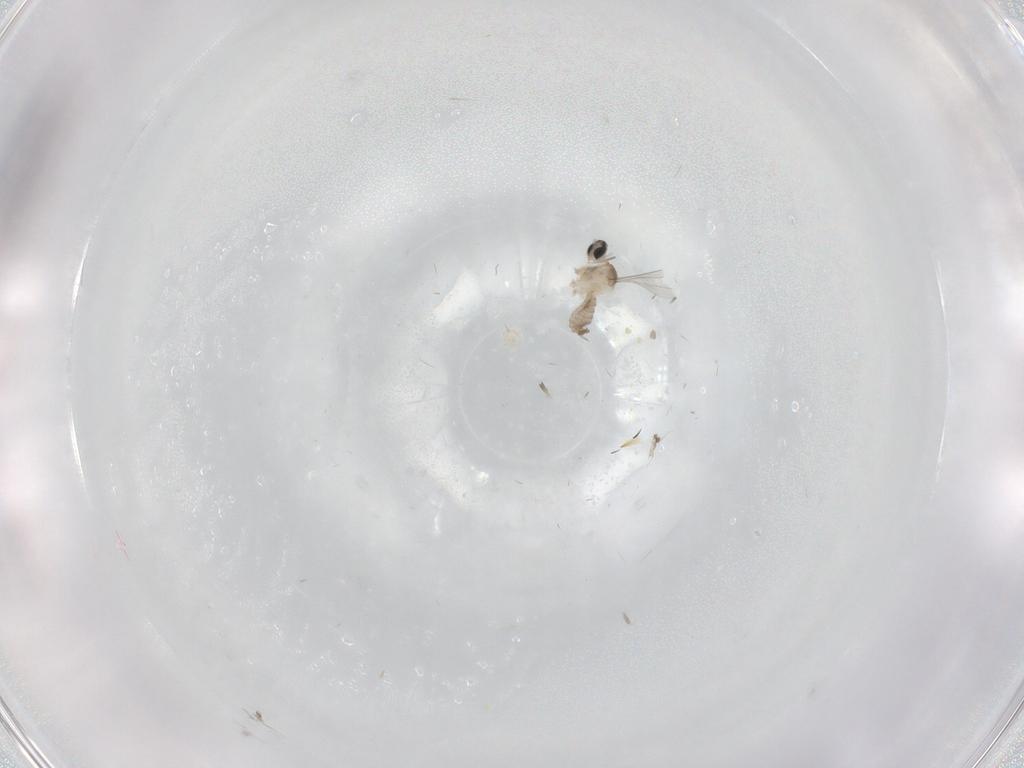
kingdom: Animalia
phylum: Arthropoda
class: Insecta
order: Diptera
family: Cecidomyiidae
